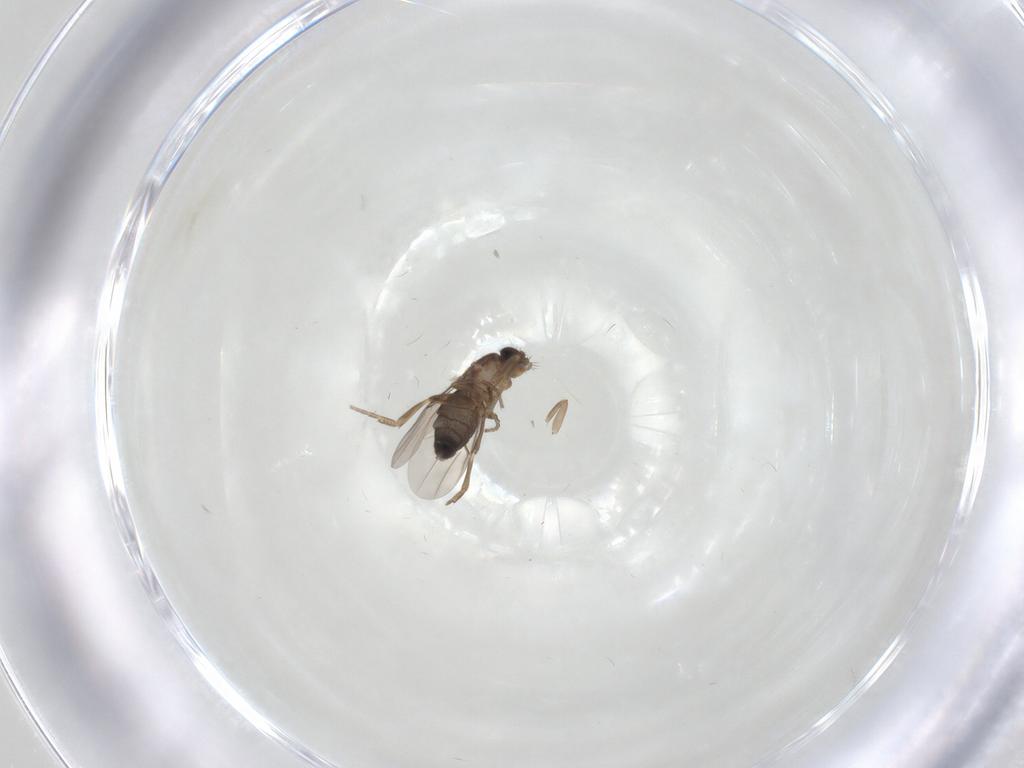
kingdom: Animalia
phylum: Arthropoda
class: Insecta
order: Diptera
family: Phoridae
